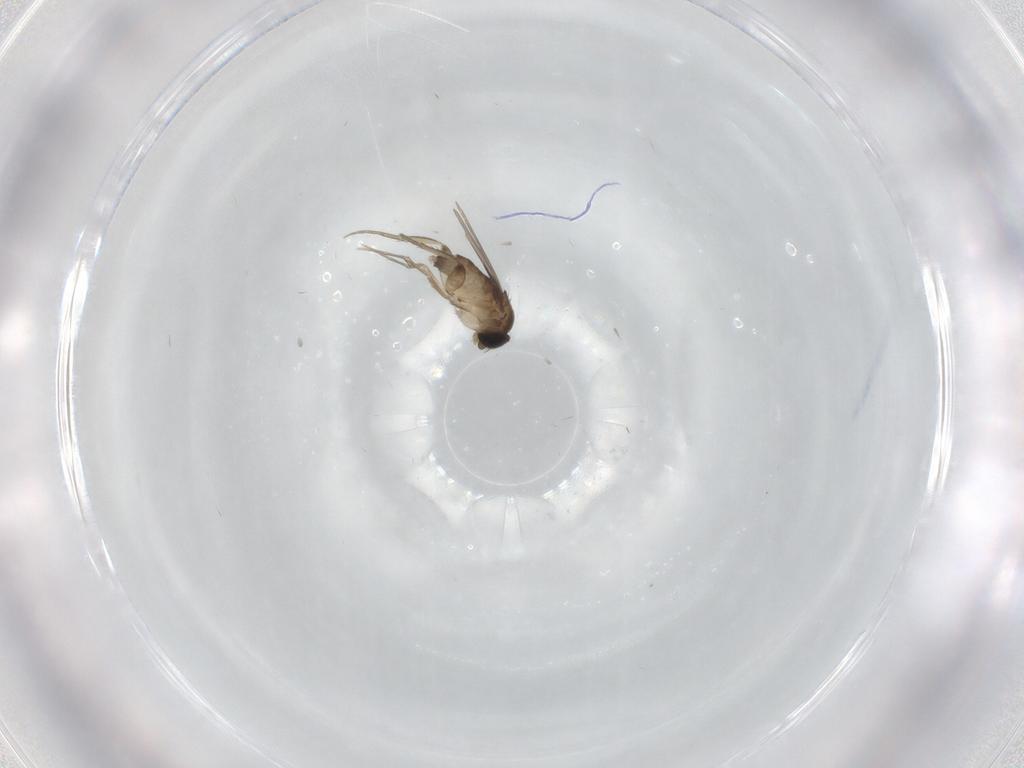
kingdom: Animalia
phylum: Arthropoda
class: Insecta
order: Diptera
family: Phoridae
